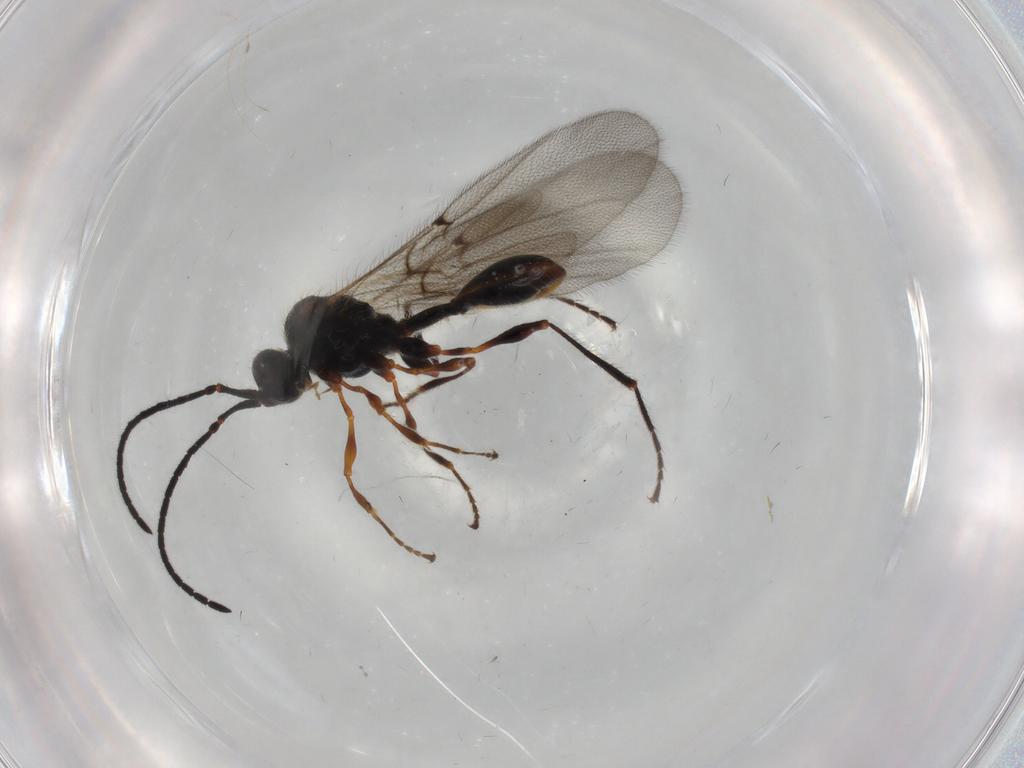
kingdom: Animalia
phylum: Arthropoda
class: Insecta
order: Hymenoptera
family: Diapriidae
